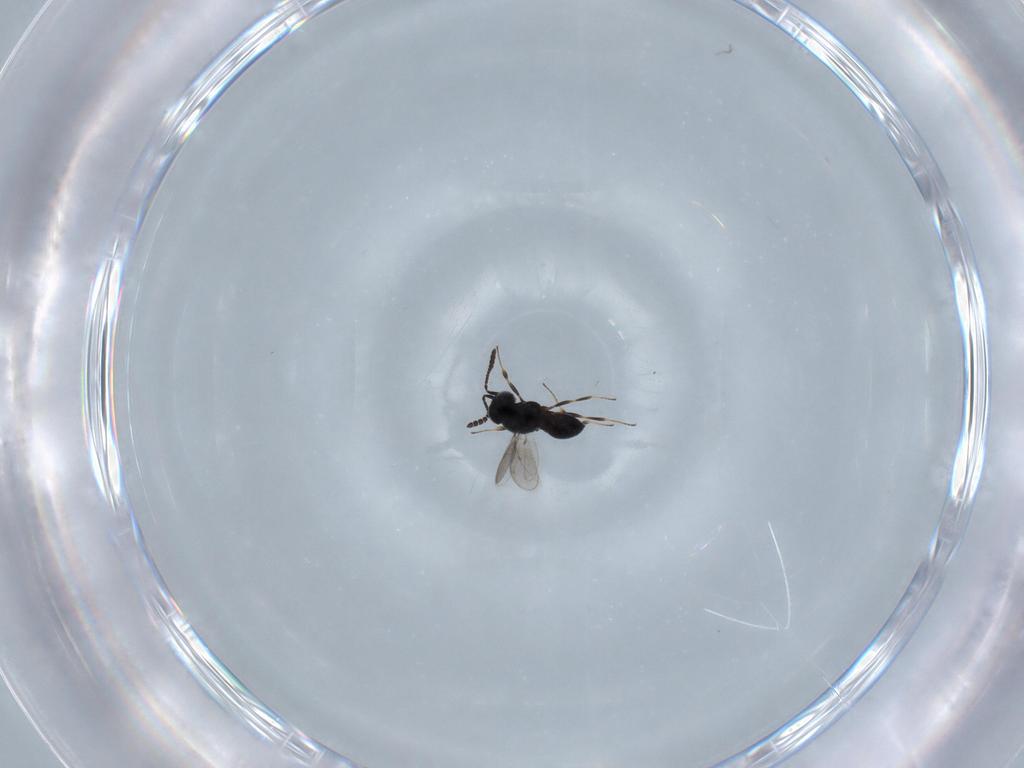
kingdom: Animalia
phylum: Arthropoda
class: Insecta
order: Hymenoptera
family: Scelionidae
